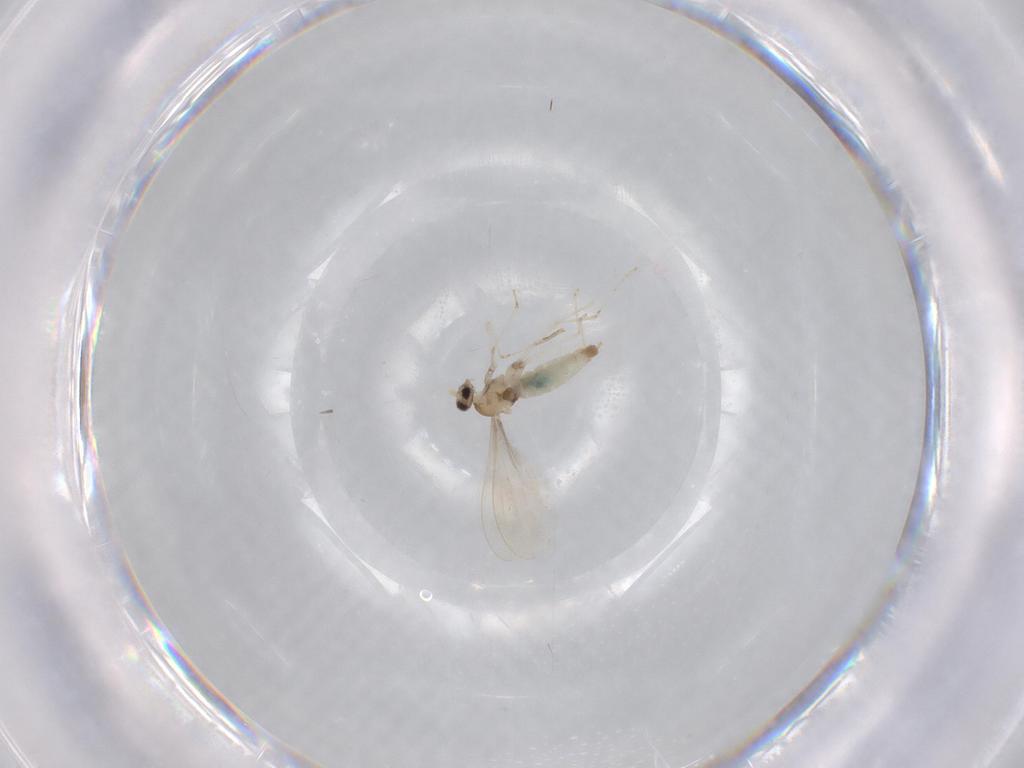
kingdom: Animalia
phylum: Arthropoda
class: Insecta
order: Diptera
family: Cecidomyiidae
